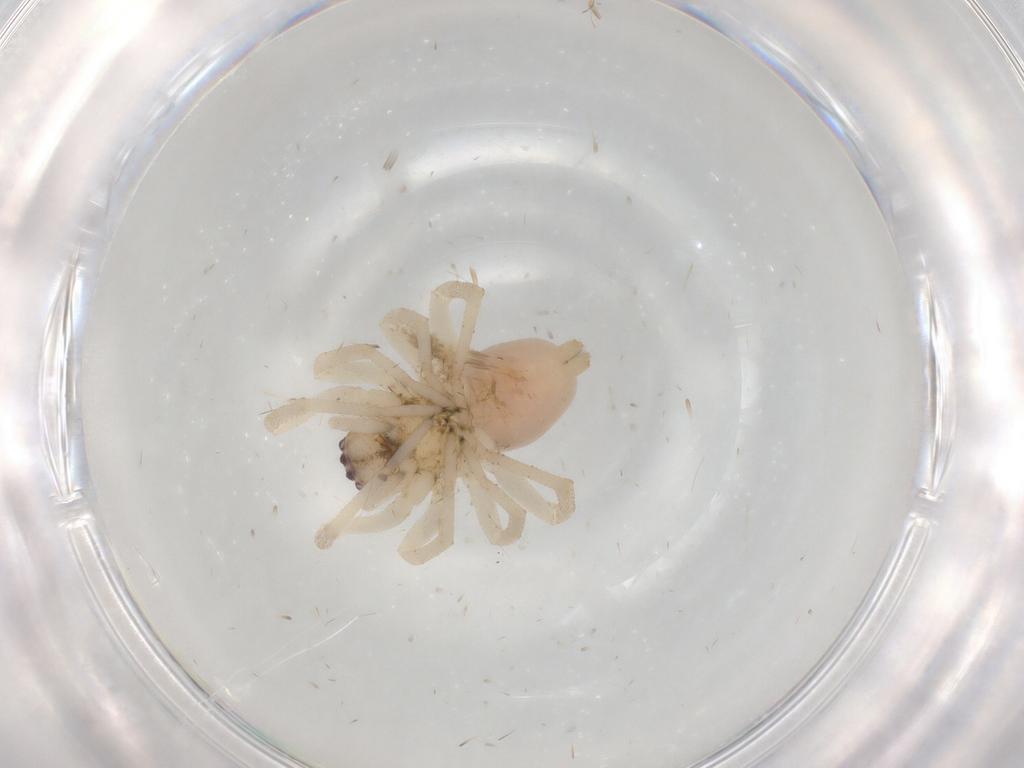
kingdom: Animalia
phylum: Arthropoda
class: Arachnida
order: Araneae
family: Cheiracanthiidae
